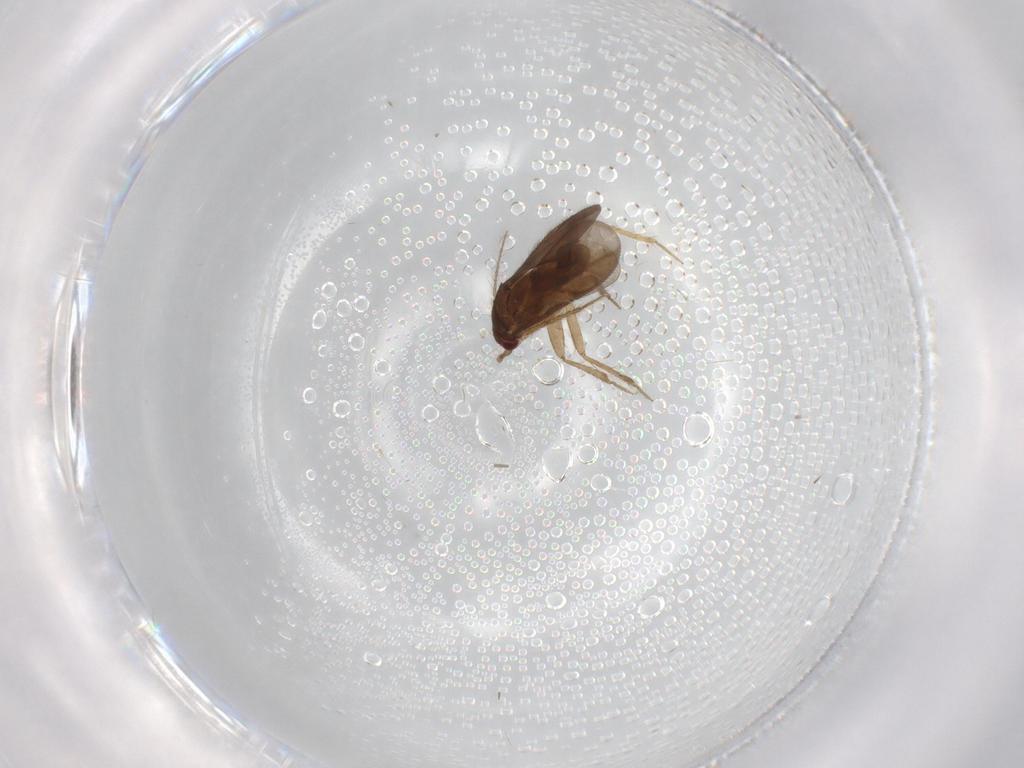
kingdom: Animalia
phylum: Arthropoda
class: Insecta
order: Hemiptera
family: Ceratocombidae
